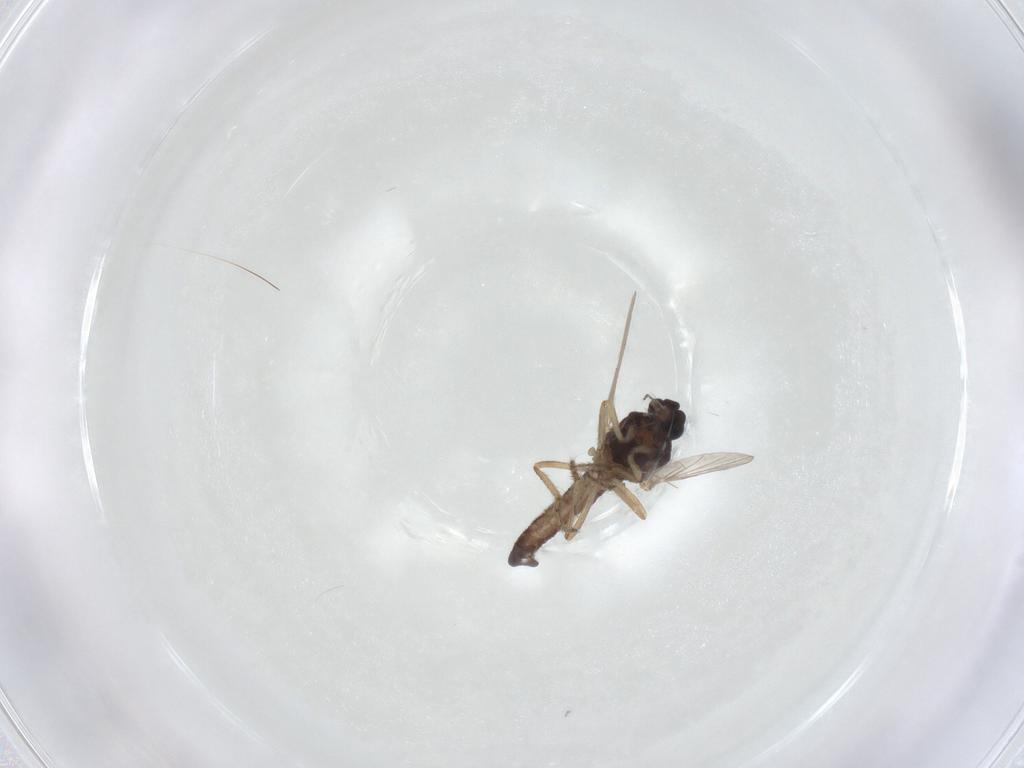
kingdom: Animalia
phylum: Arthropoda
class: Insecta
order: Diptera
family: Ceratopogonidae
